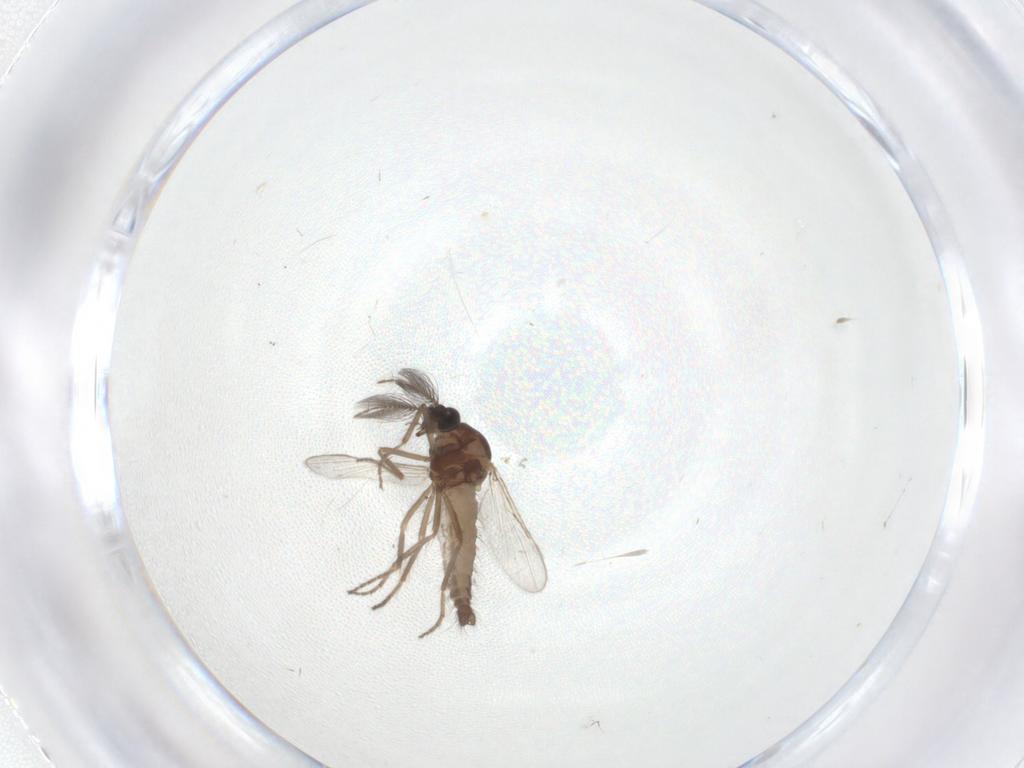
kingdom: Animalia
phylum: Arthropoda
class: Insecta
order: Diptera
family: Ceratopogonidae
